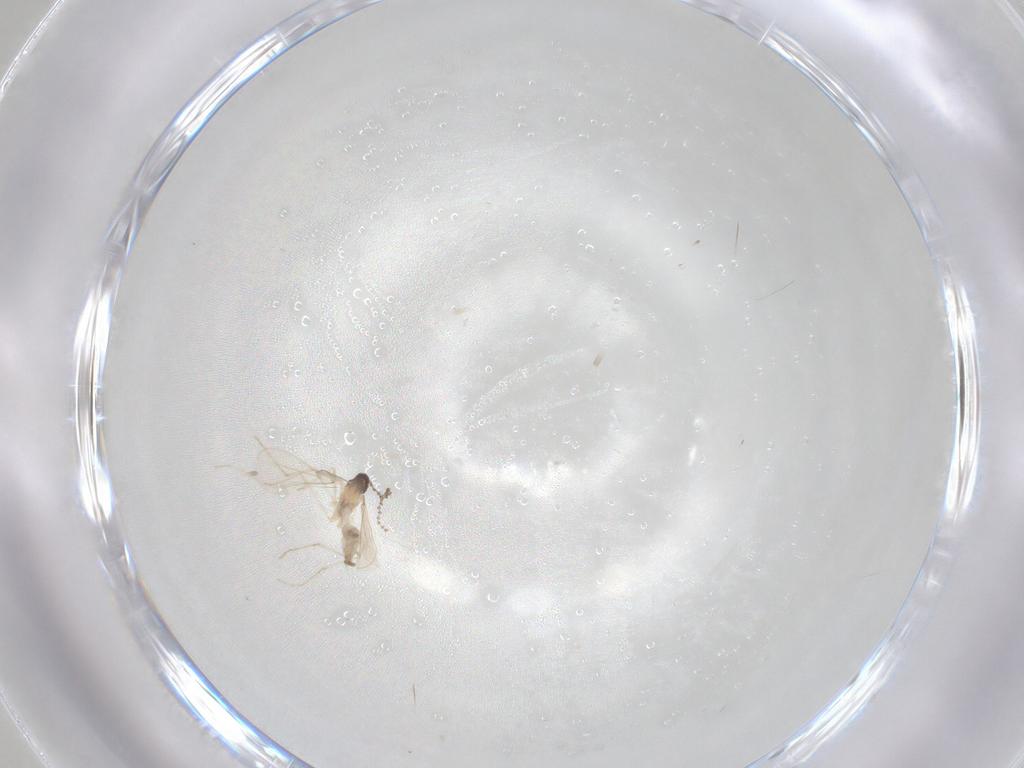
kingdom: Animalia
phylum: Arthropoda
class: Insecta
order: Diptera
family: Cecidomyiidae
